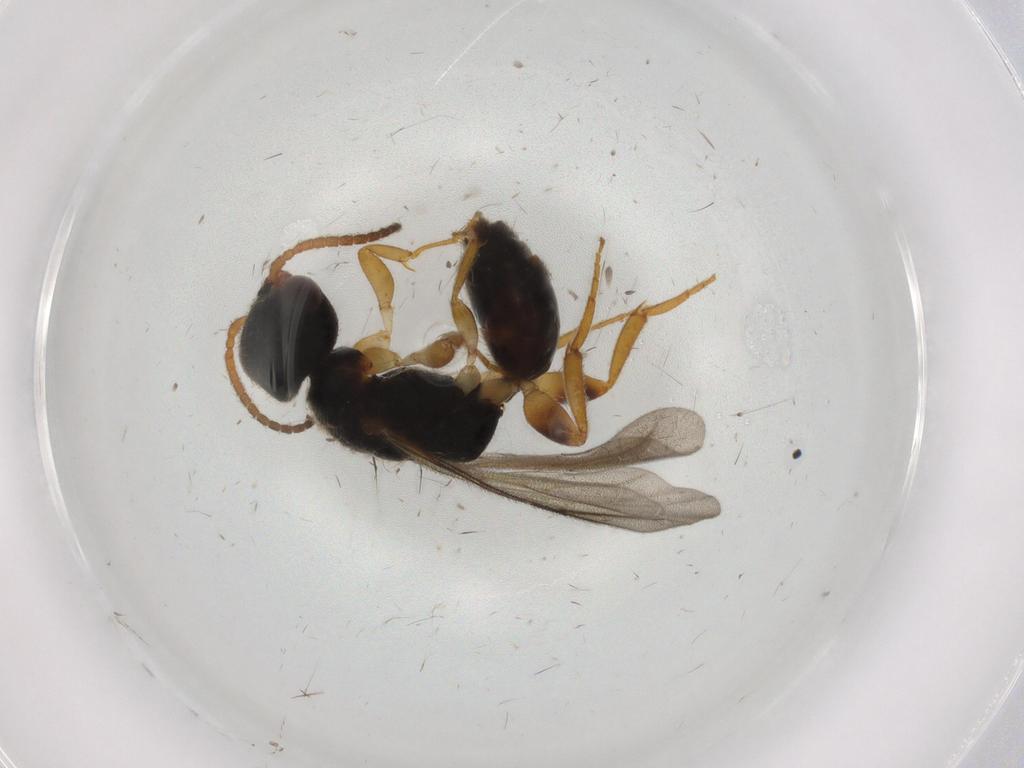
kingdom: Animalia
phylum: Arthropoda
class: Insecta
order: Hymenoptera
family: Bethylidae
